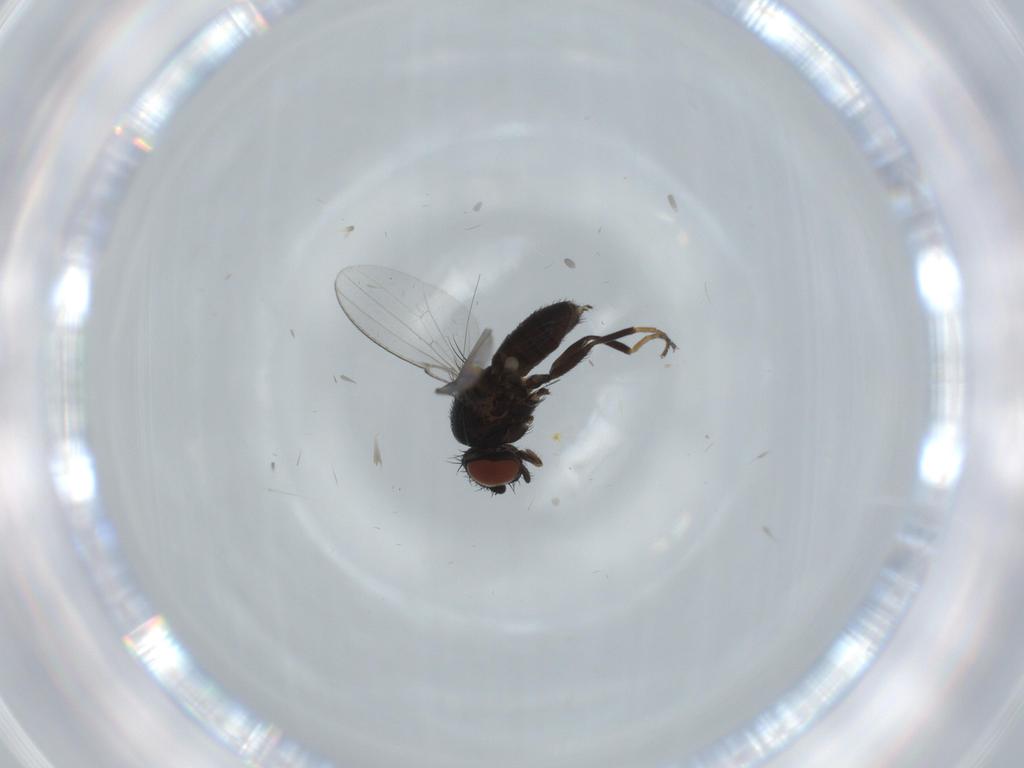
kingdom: Animalia
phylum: Arthropoda
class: Insecta
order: Diptera
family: Milichiidae
